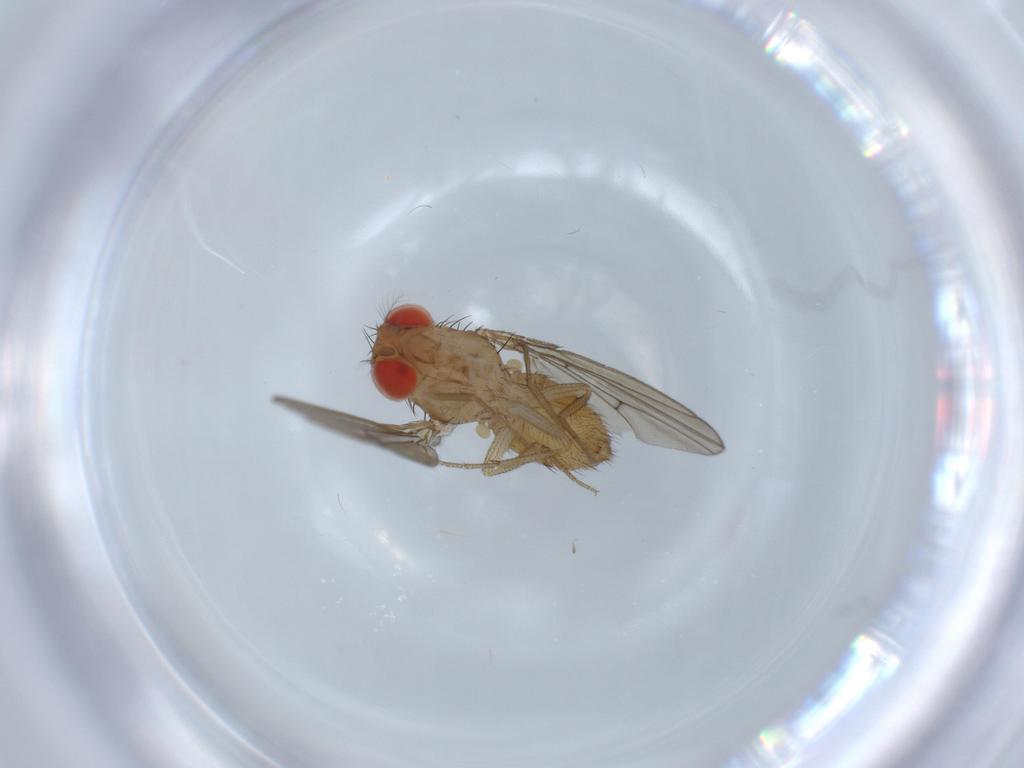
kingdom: Animalia
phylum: Arthropoda
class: Insecta
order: Diptera
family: Drosophilidae
